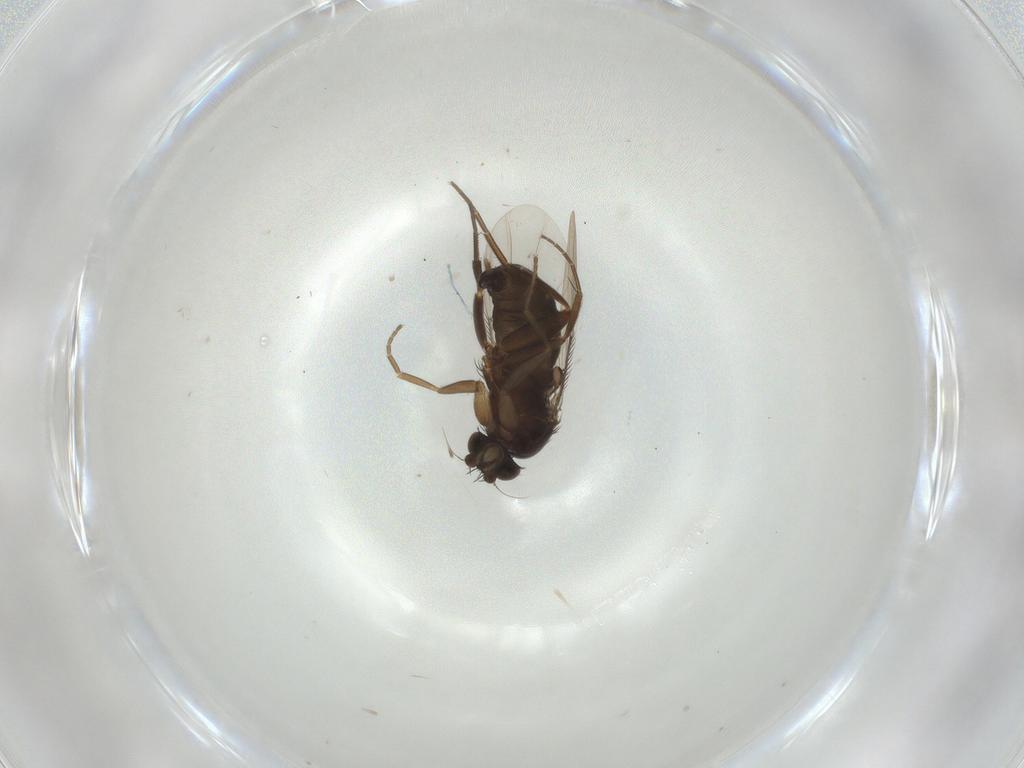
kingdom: Animalia
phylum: Arthropoda
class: Insecta
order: Diptera
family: Phoridae
